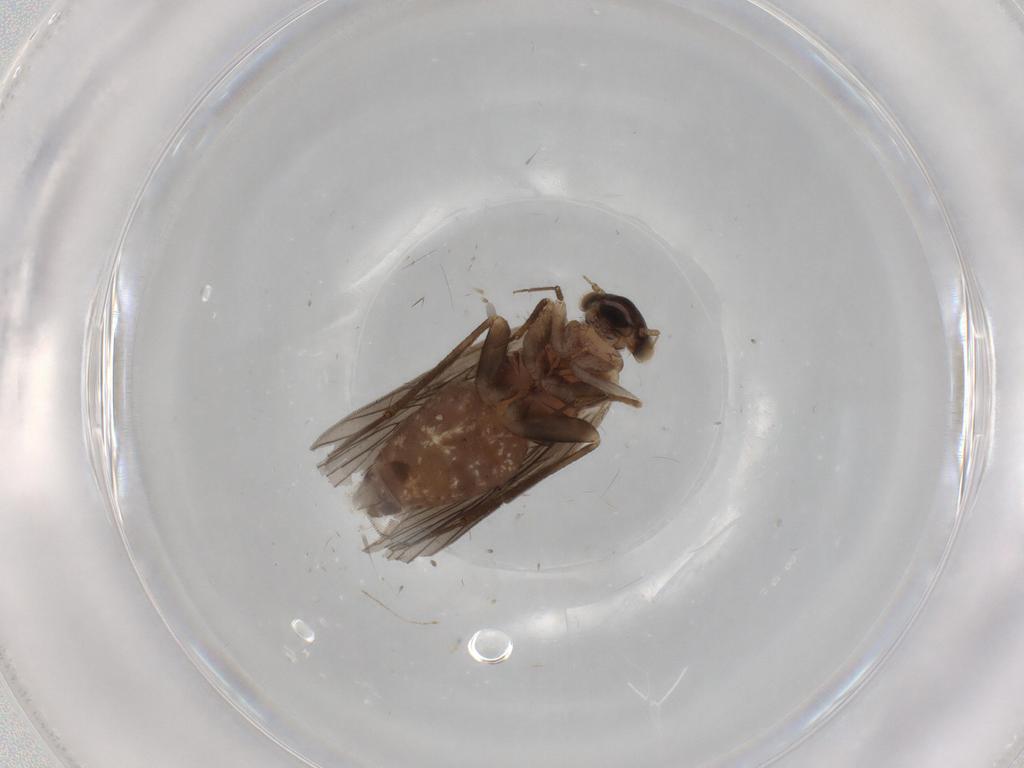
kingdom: Animalia
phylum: Arthropoda
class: Insecta
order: Psocodea
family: Lepidopsocidae
